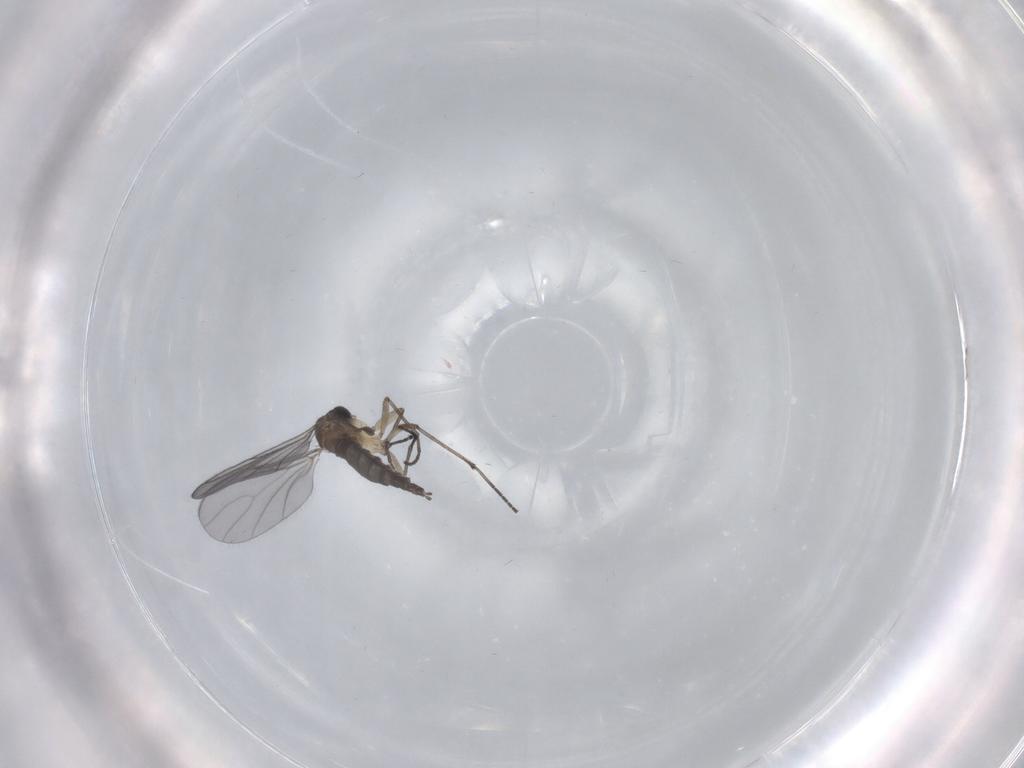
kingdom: Animalia
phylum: Arthropoda
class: Insecta
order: Diptera
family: Sciaridae
